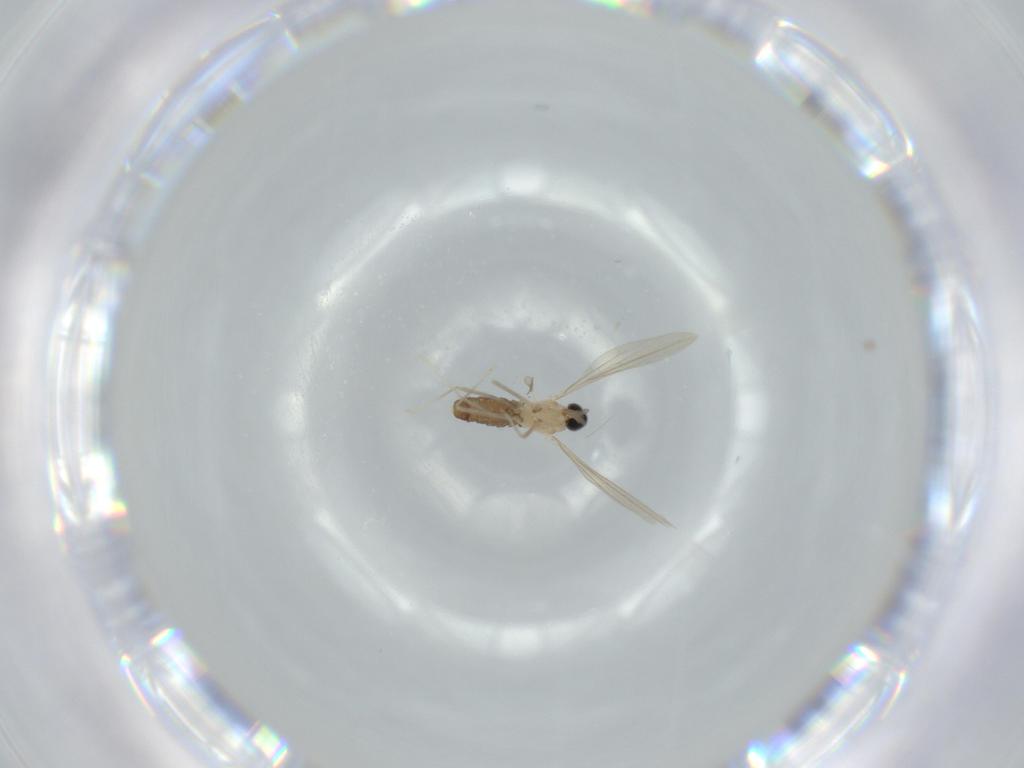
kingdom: Animalia
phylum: Arthropoda
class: Insecta
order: Diptera
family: Cecidomyiidae
